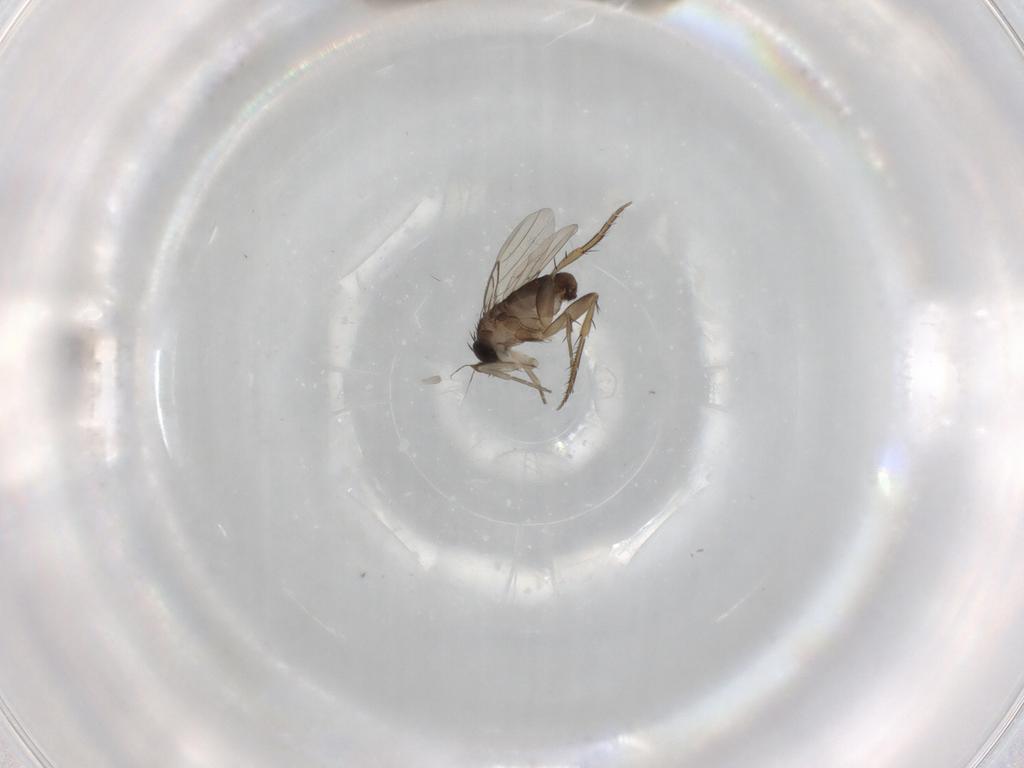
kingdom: Animalia
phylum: Arthropoda
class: Insecta
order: Diptera
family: Phoridae
